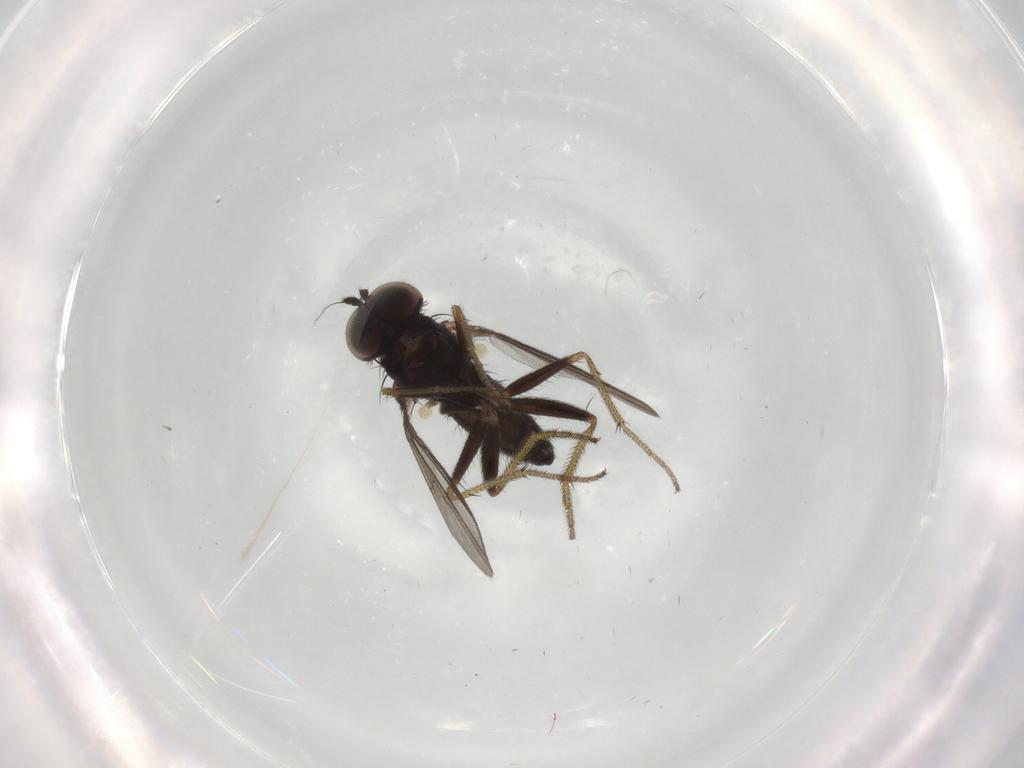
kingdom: Animalia
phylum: Arthropoda
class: Insecta
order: Diptera
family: Dolichopodidae
